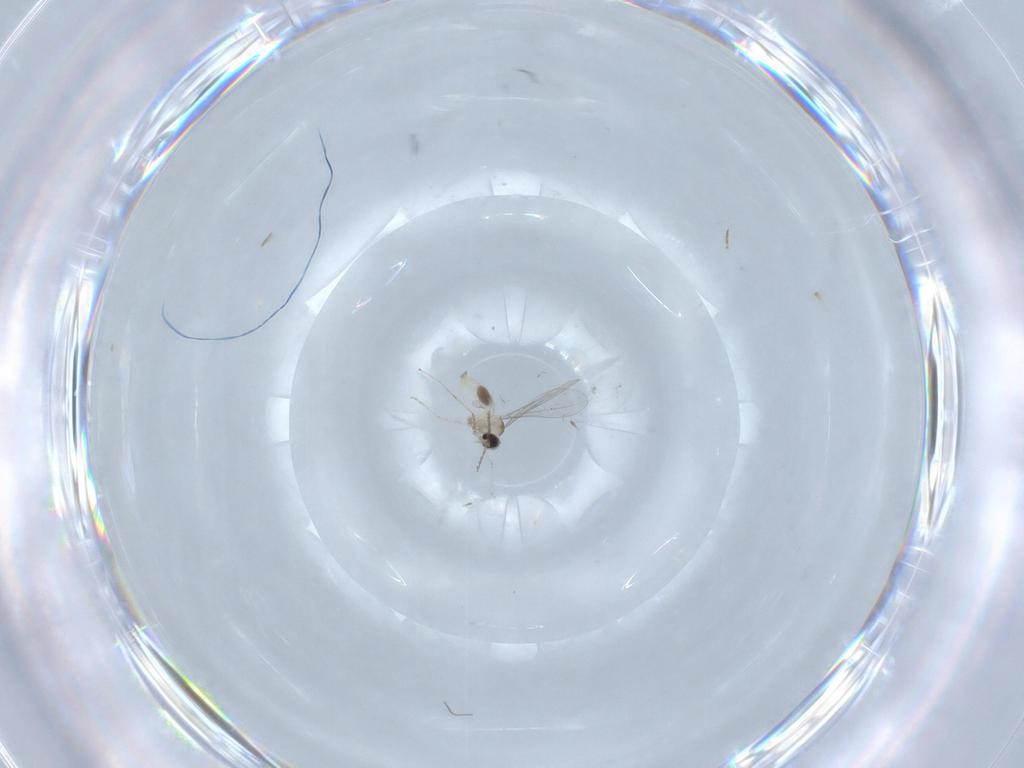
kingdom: Animalia
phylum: Arthropoda
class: Insecta
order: Diptera
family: Cecidomyiidae
